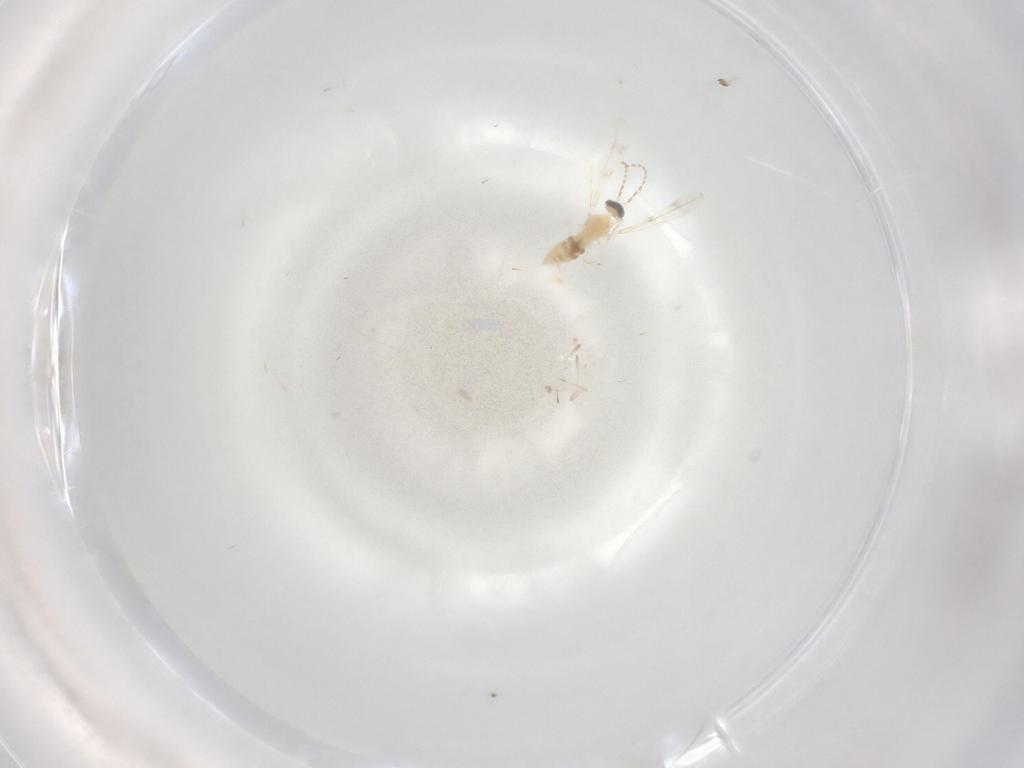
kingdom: Animalia
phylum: Arthropoda
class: Insecta
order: Diptera
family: Cecidomyiidae
